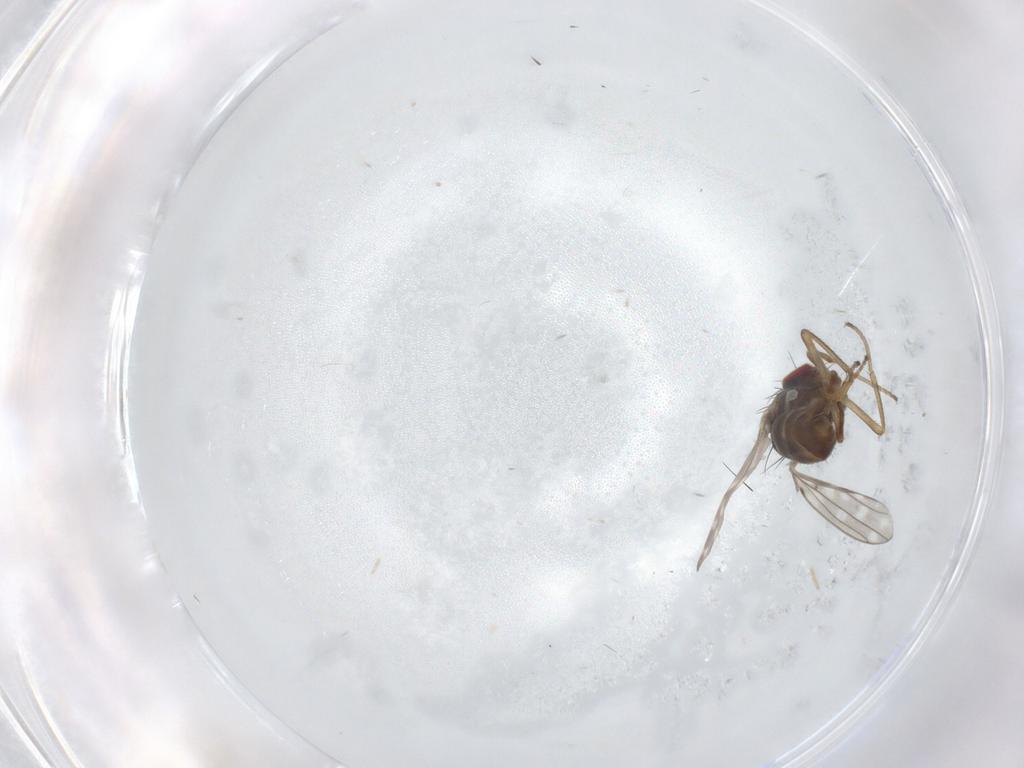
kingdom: Animalia
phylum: Arthropoda
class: Insecta
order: Diptera
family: Ephydridae
